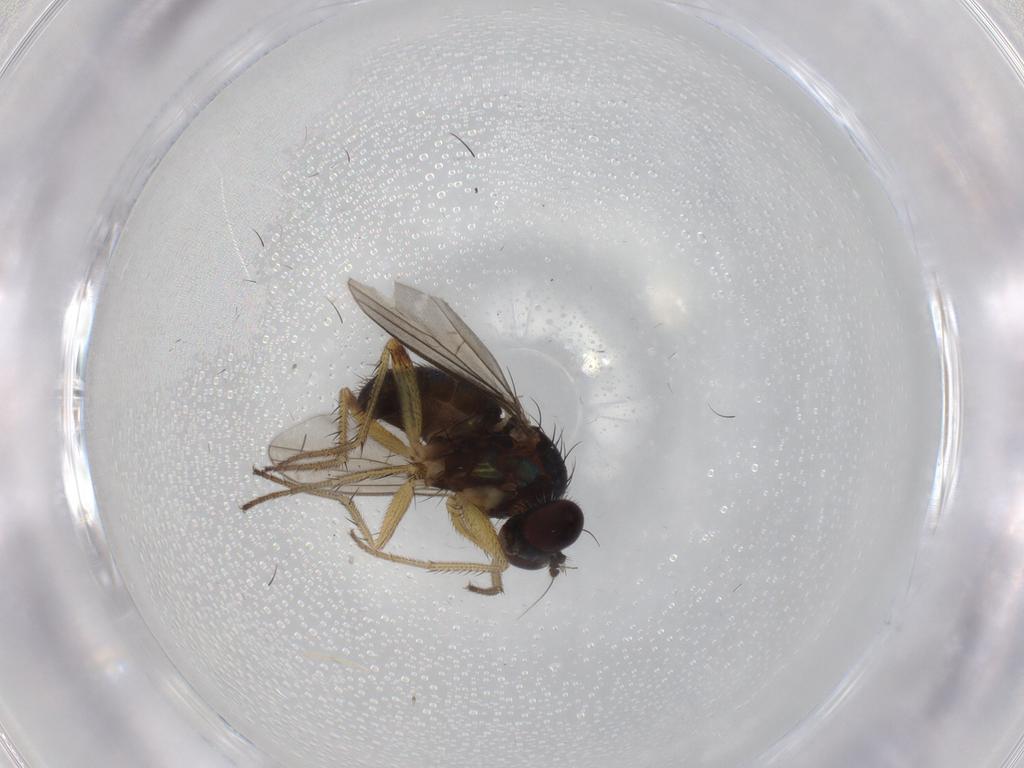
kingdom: Animalia
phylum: Arthropoda
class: Insecta
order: Diptera
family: Dolichopodidae
